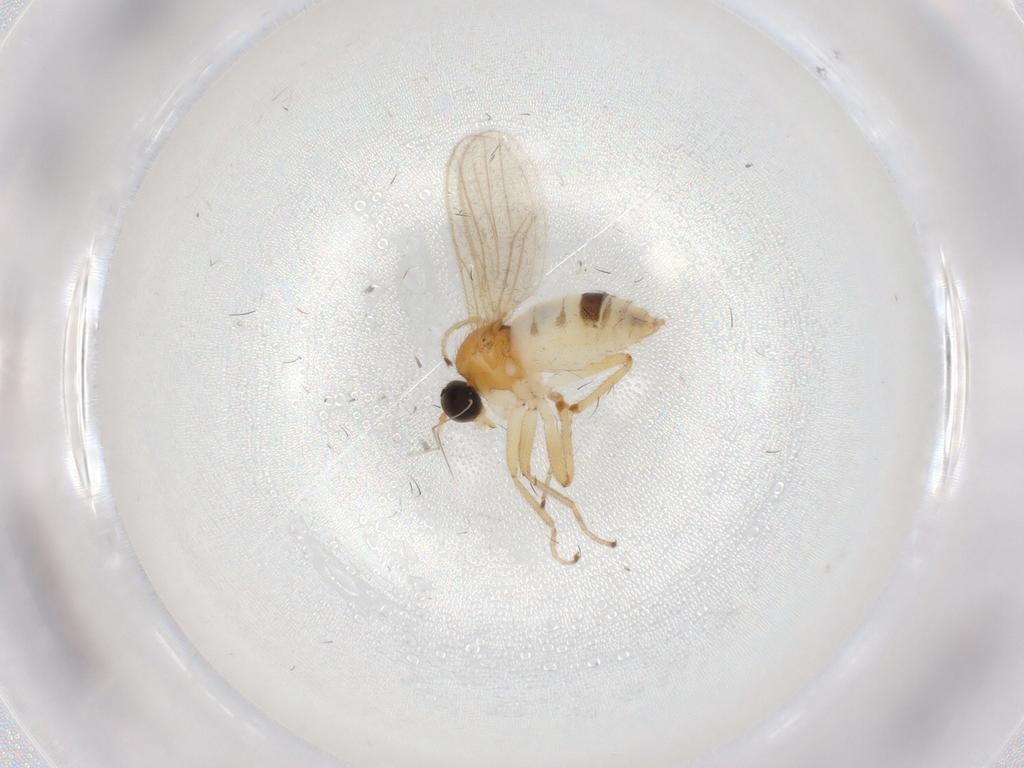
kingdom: Animalia
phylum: Arthropoda
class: Insecta
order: Diptera
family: Hybotidae
